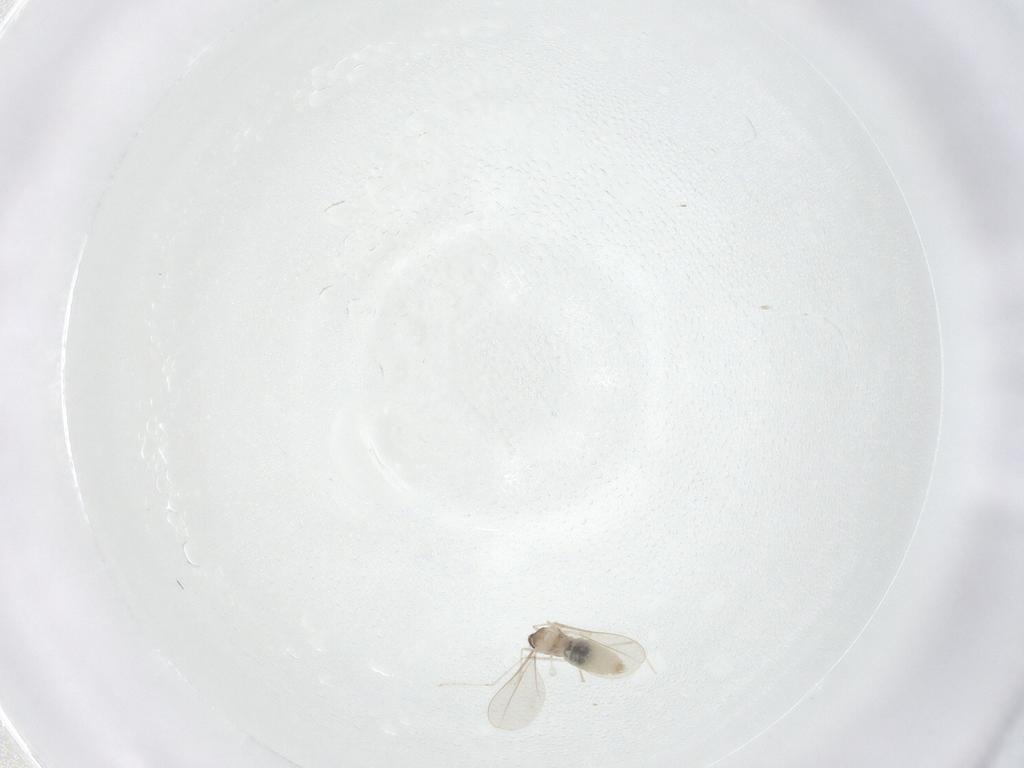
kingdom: Animalia
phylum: Arthropoda
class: Insecta
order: Diptera
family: Cecidomyiidae
